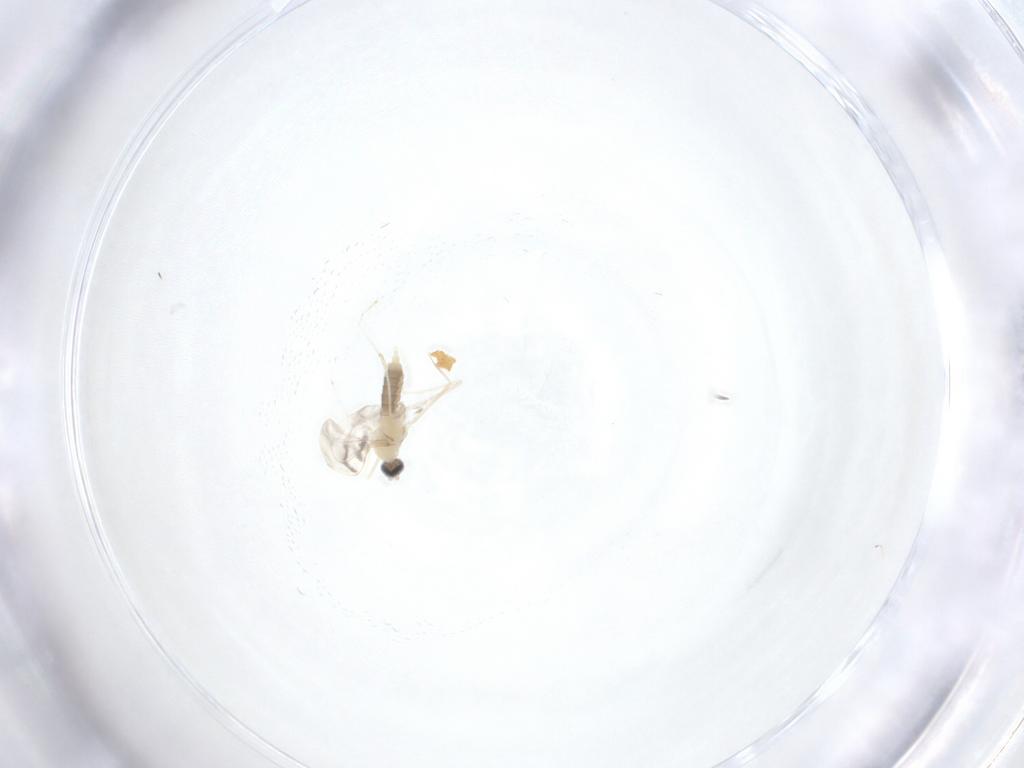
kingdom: Animalia
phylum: Arthropoda
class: Insecta
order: Diptera
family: Cecidomyiidae
